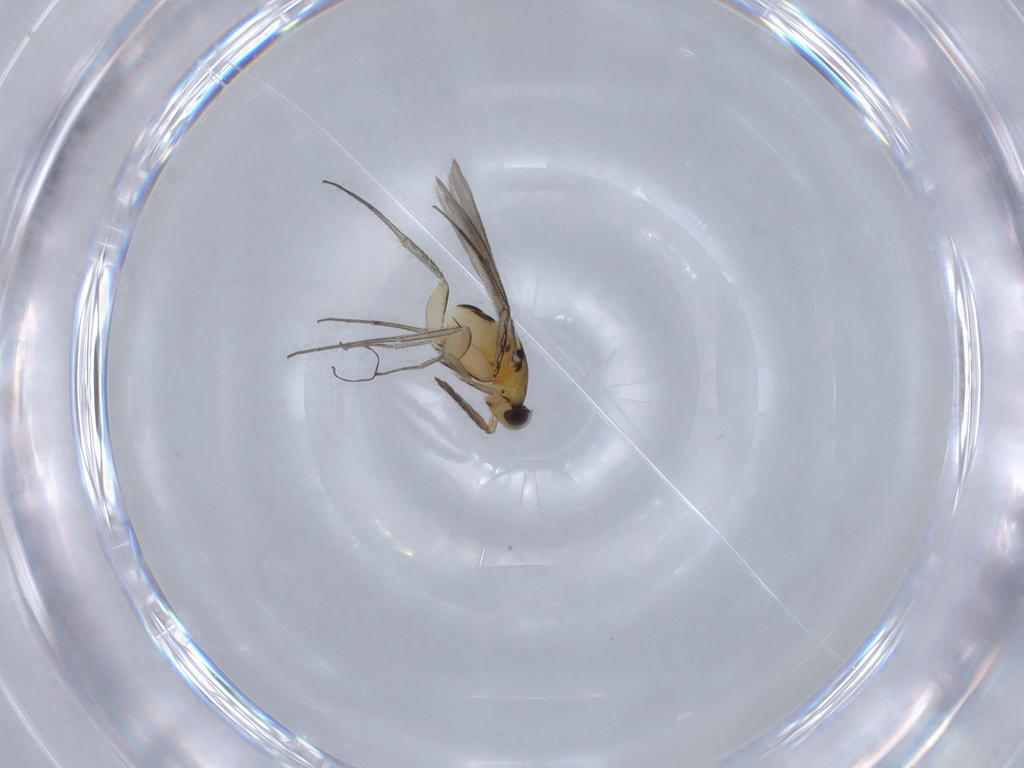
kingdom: Animalia
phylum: Arthropoda
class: Insecta
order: Hymenoptera
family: Eulophidae
